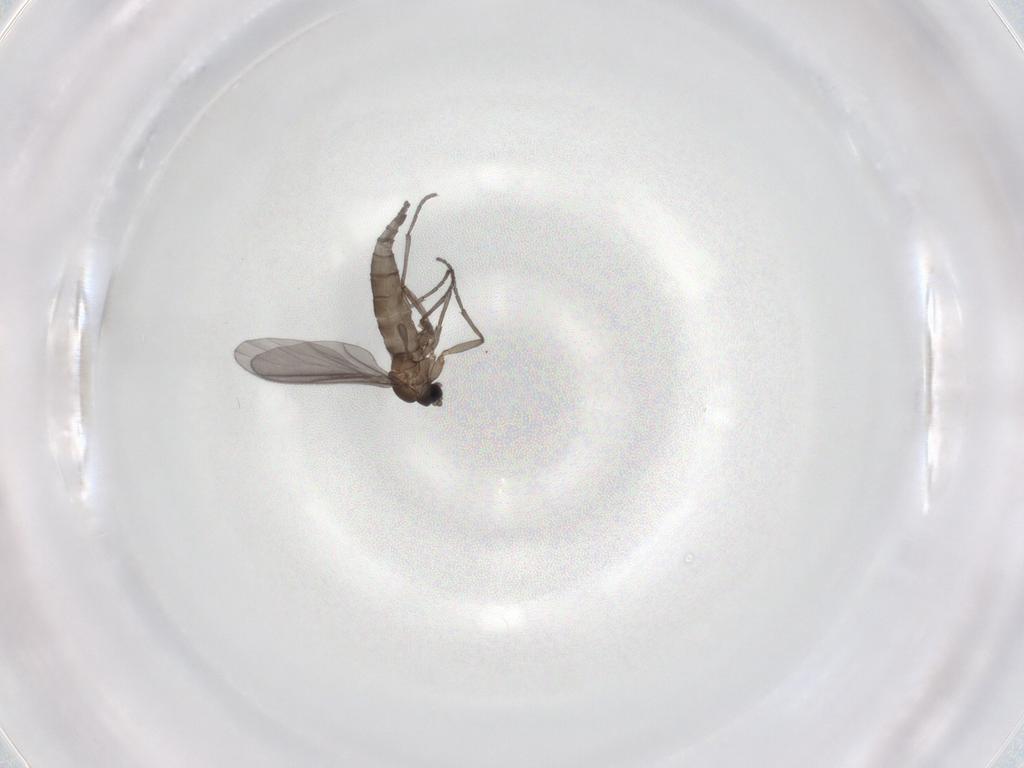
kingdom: Animalia
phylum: Arthropoda
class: Insecta
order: Diptera
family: Sciaridae
